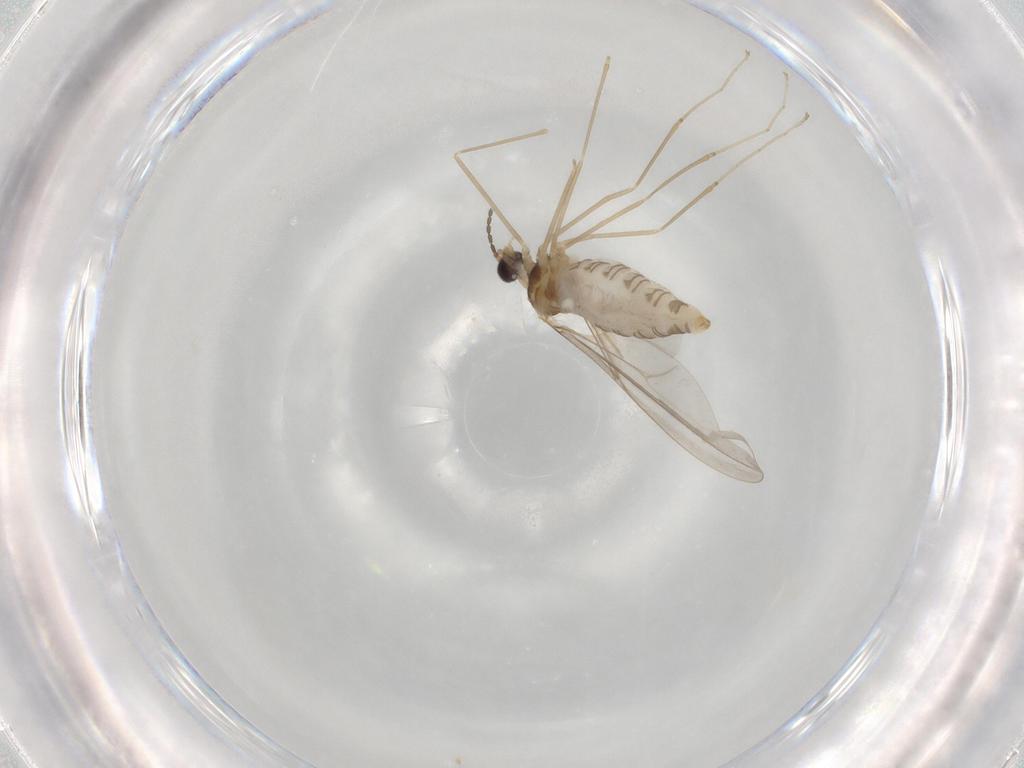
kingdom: Animalia
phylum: Arthropoda
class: Insecta
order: Diptera
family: Cecidomyiidae
